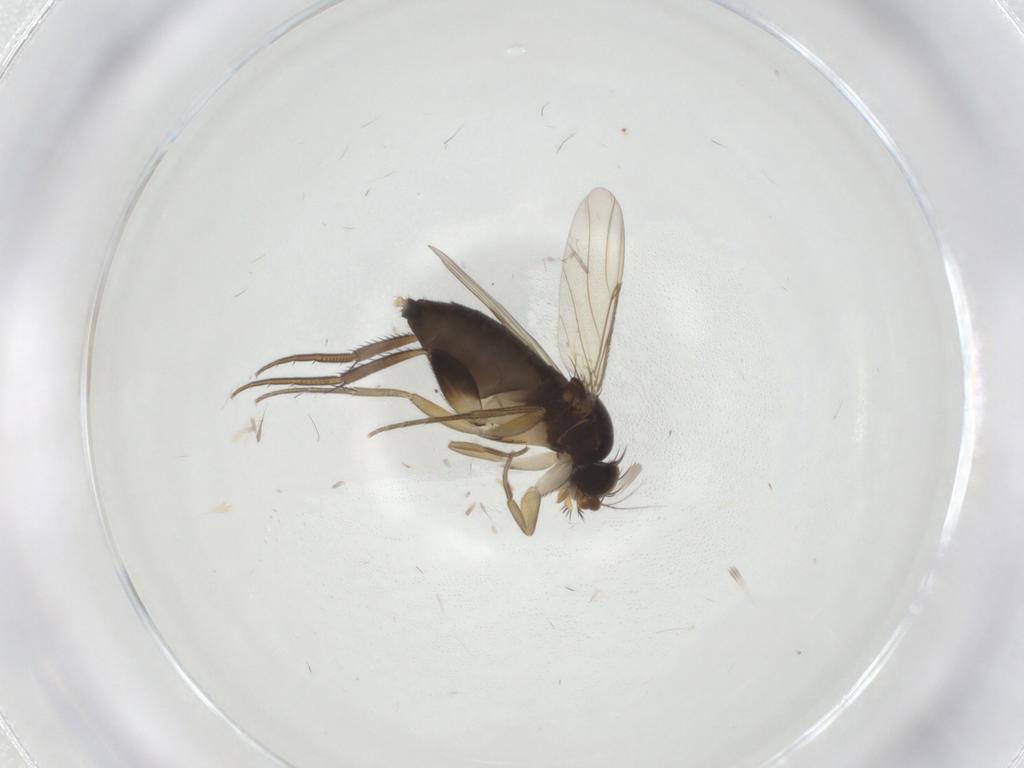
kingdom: Animalia
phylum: Arthropoda
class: Insecta
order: Diptera
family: Phoridae
